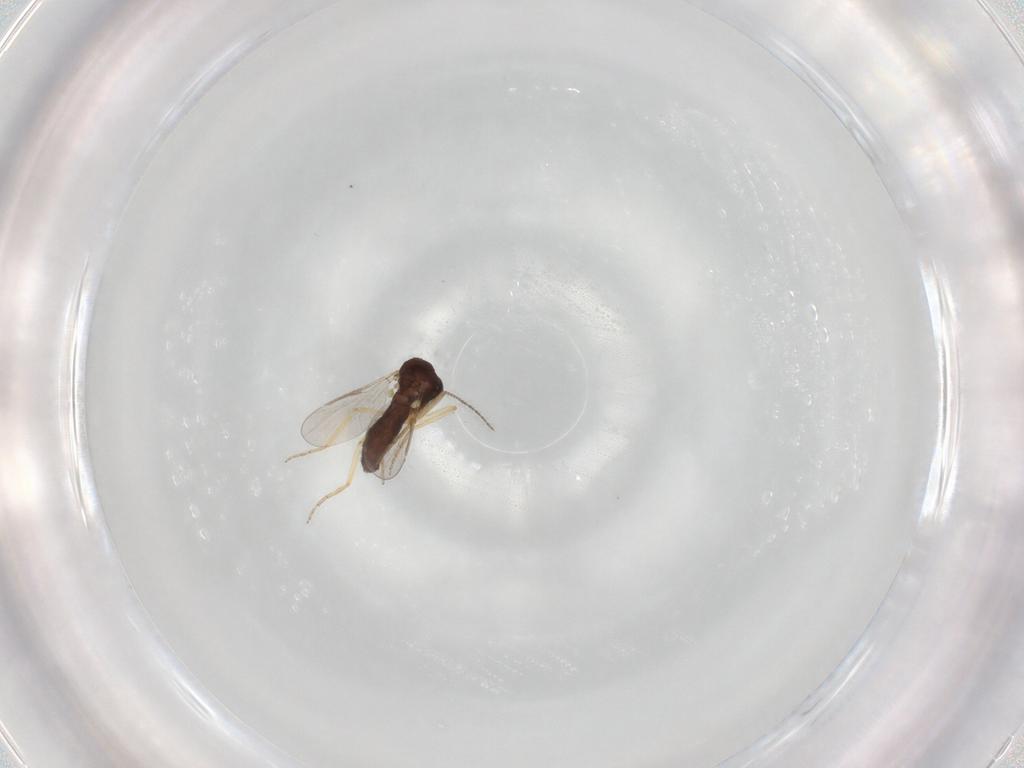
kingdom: Animalia
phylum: Arthropoda
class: Insecta
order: Diptera
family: Ceratopogonidae
